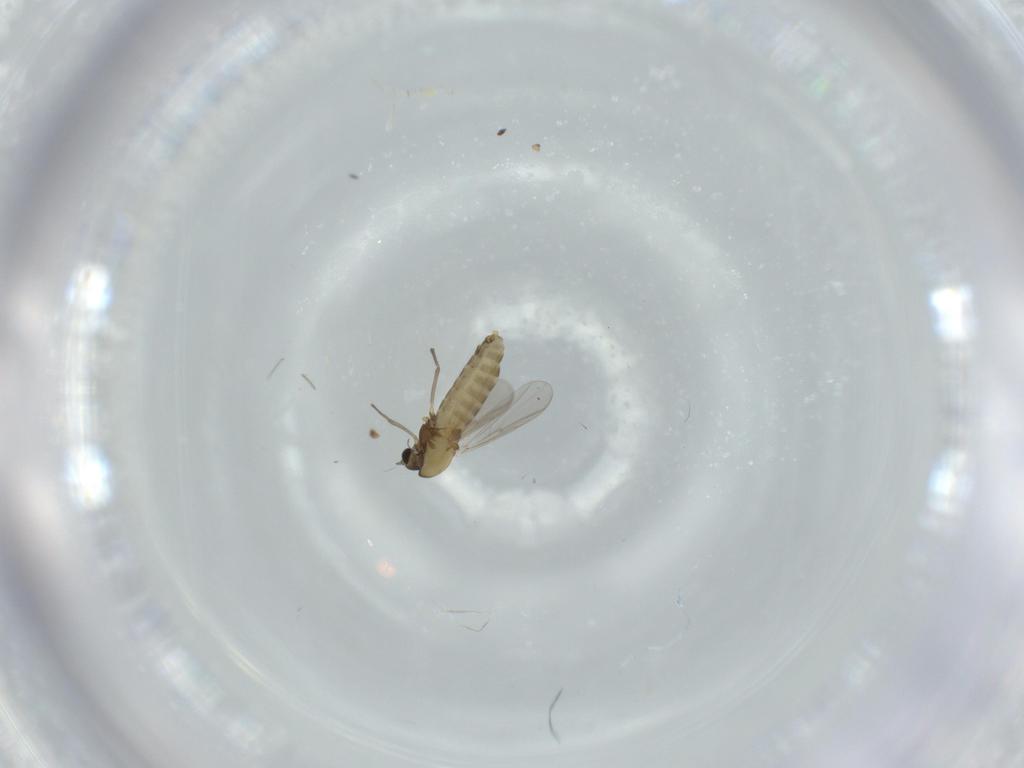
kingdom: Animalia
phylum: Arthropoda
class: Insecta
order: Diptera
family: Chironomidae
